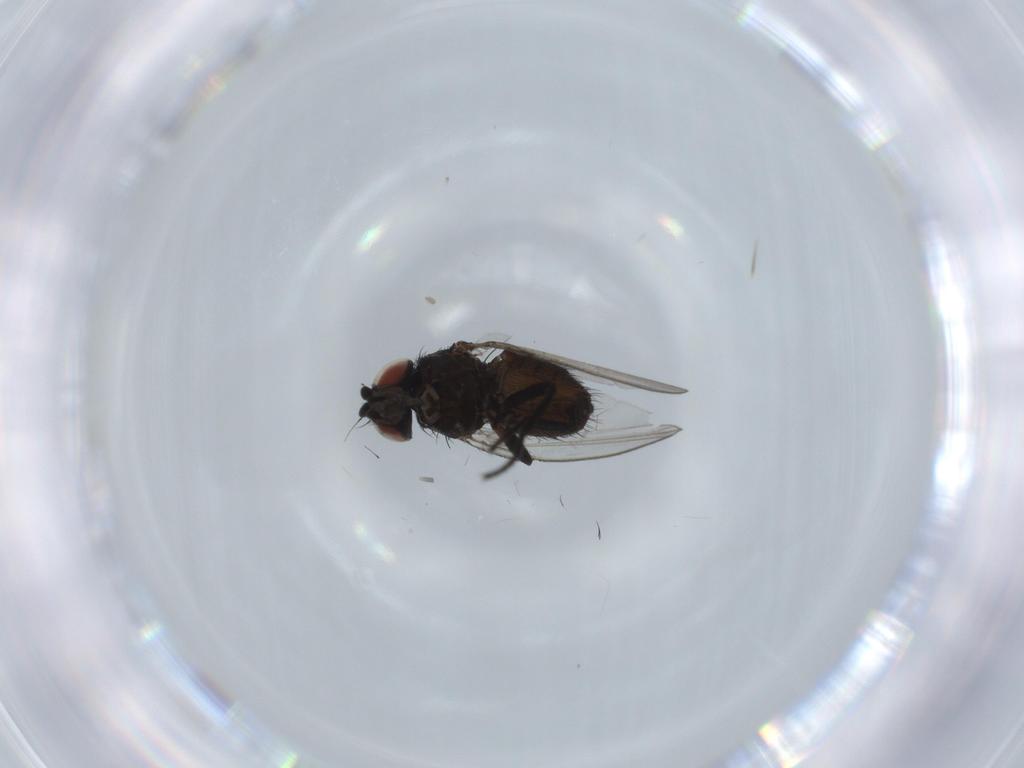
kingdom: Animalia
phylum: Arthropoda
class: Insecta
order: Diptera
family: Milichiidae
